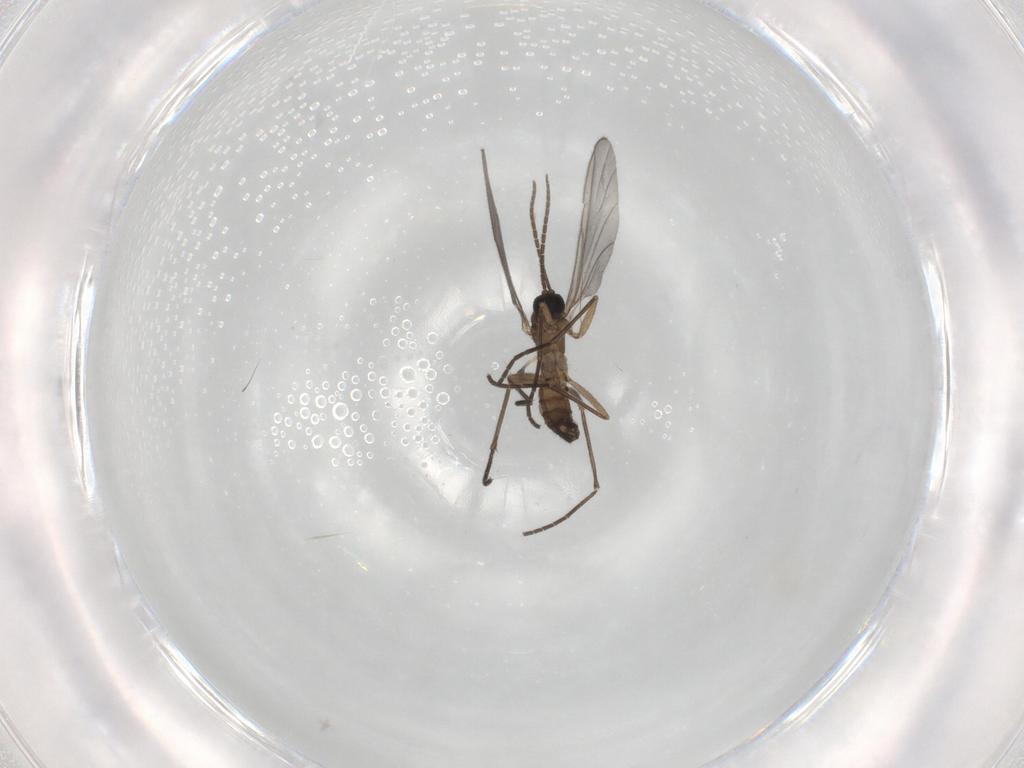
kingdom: Animalia
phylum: Arthropoda
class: Insecta
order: Diptera
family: Sciaridae
